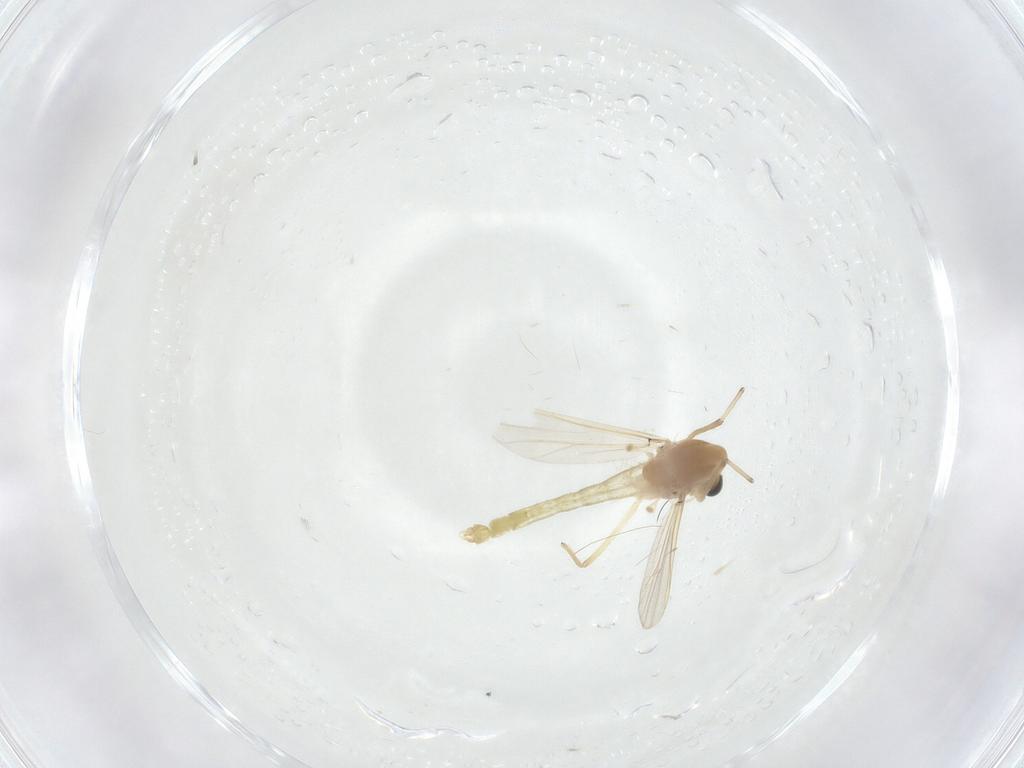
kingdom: Animalia
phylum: Arthropoda
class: Insecta
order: Diptera
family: Chironomidae
